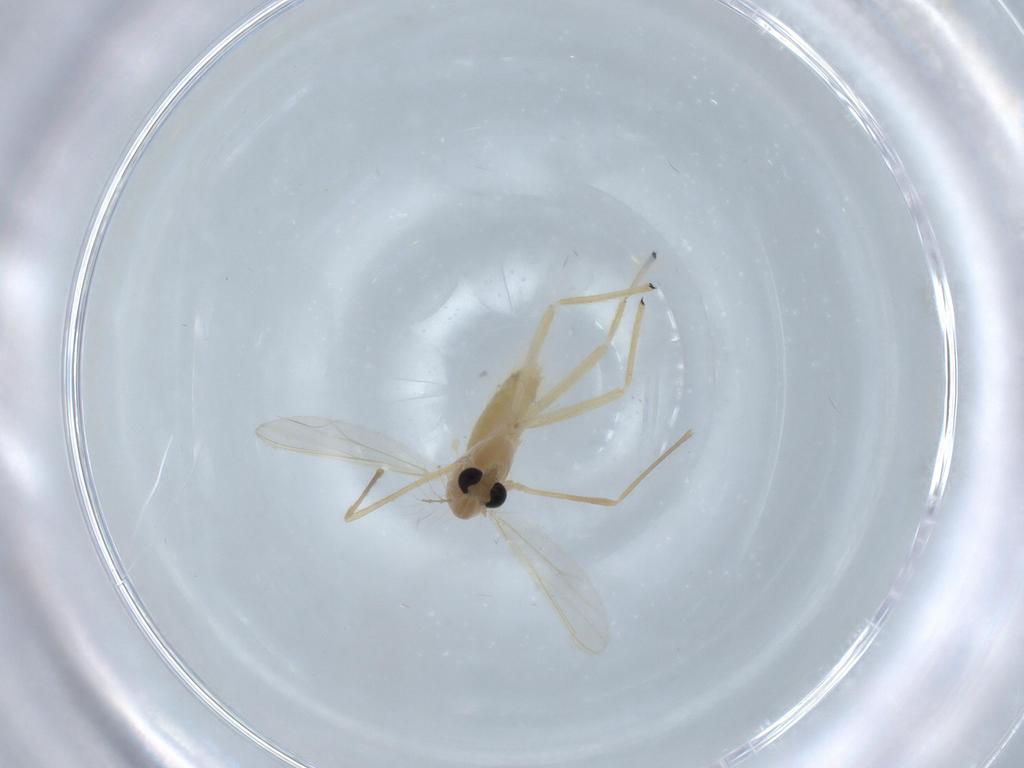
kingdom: Animalia
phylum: Arthropoda
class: Insecta
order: Diptera
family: Chironomidae
